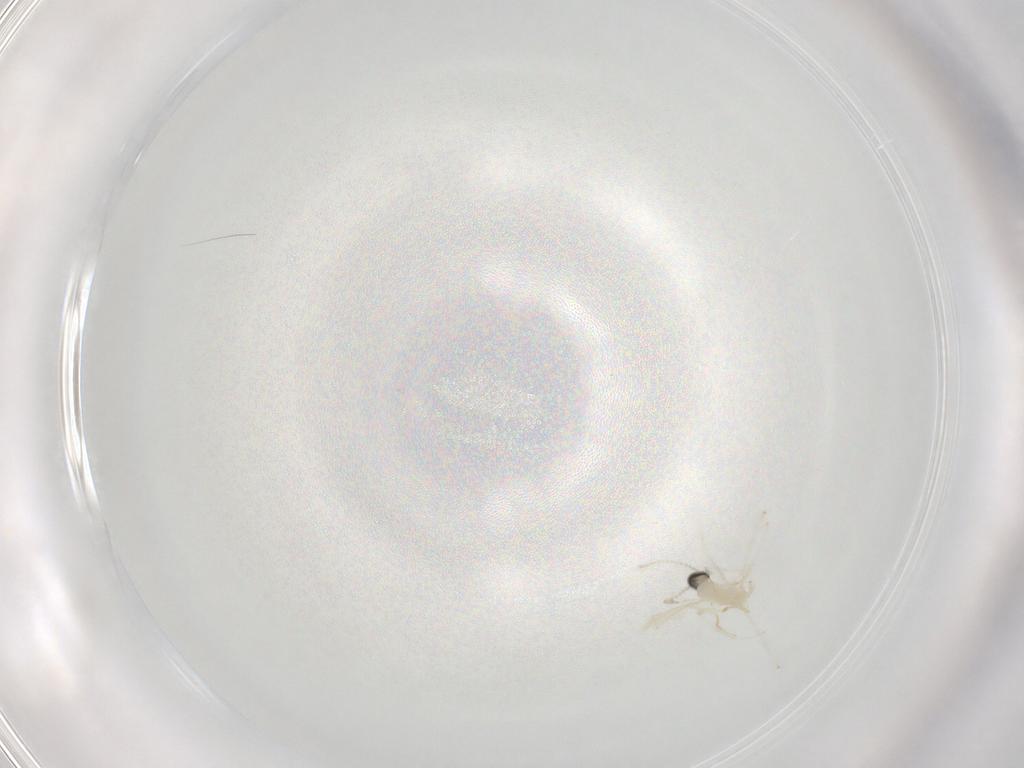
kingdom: Animalia
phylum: Arthropoda
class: Insecta
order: Diptera
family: Cecidomyiidae
